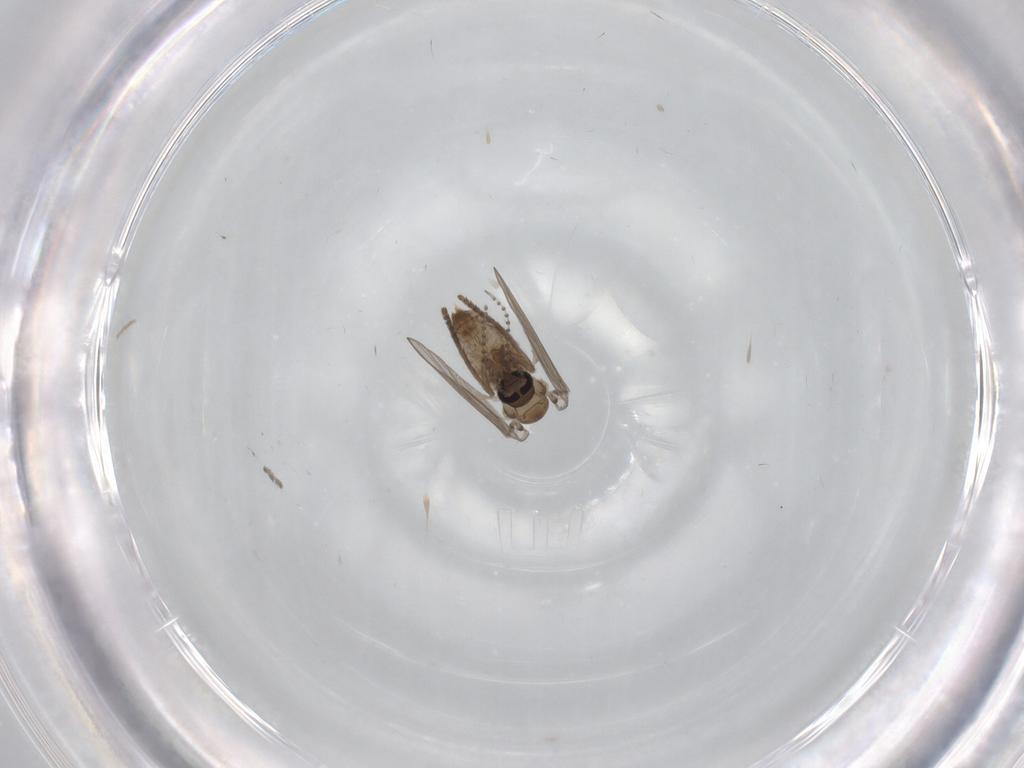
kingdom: Animalia
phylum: Arthropoda
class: Insecta
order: Diptera
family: Psychodidae
